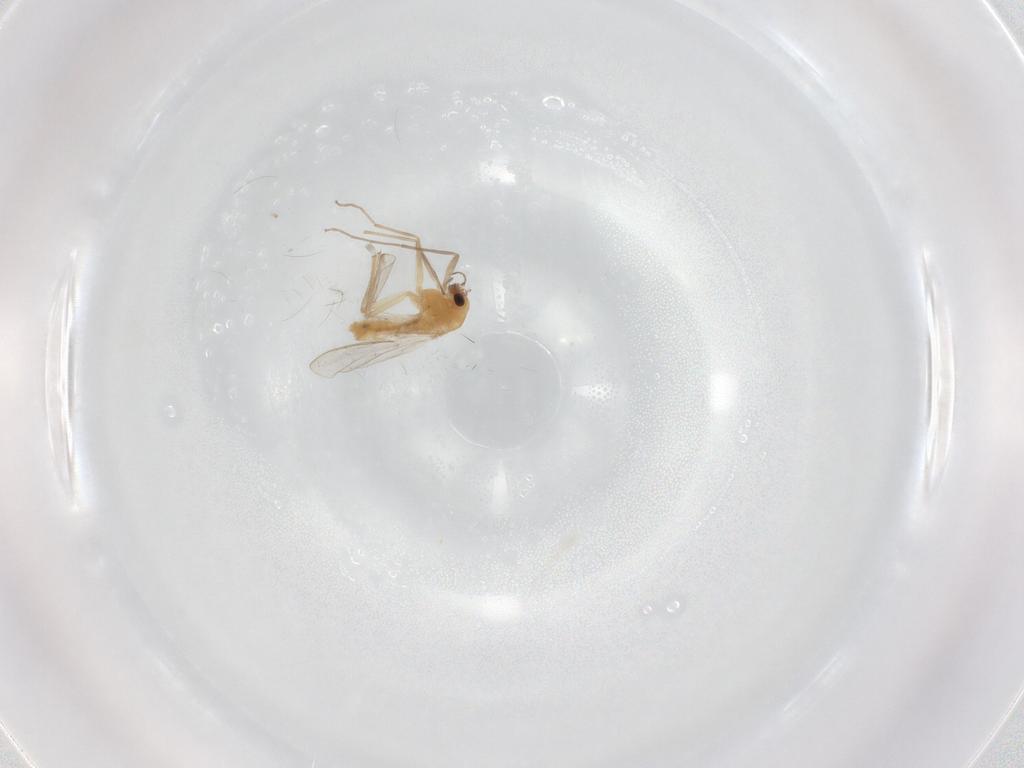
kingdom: Animalia
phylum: Arthropoda
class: Insecta
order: Diptera
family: Chironomidae
